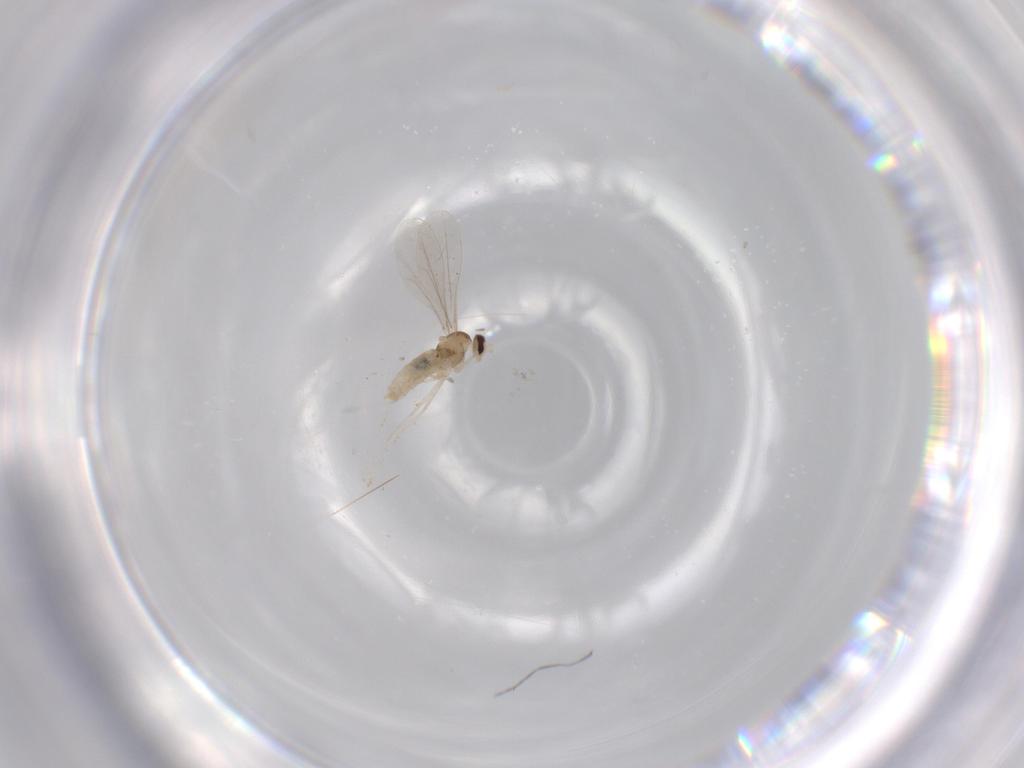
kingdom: Animalia
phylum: Arthropoda
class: Insecta
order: Diptera
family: Cecidomyiidae
